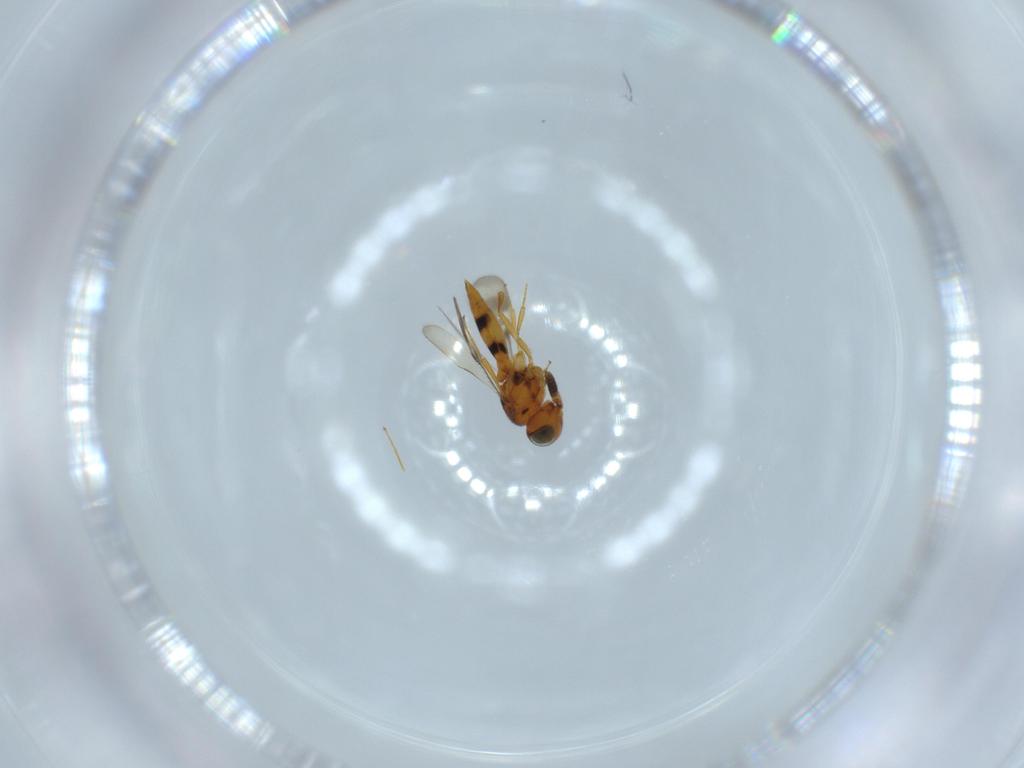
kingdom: Animalia
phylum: Arthropoda
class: Insecta
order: Hymenoptera
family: Scelionidae
